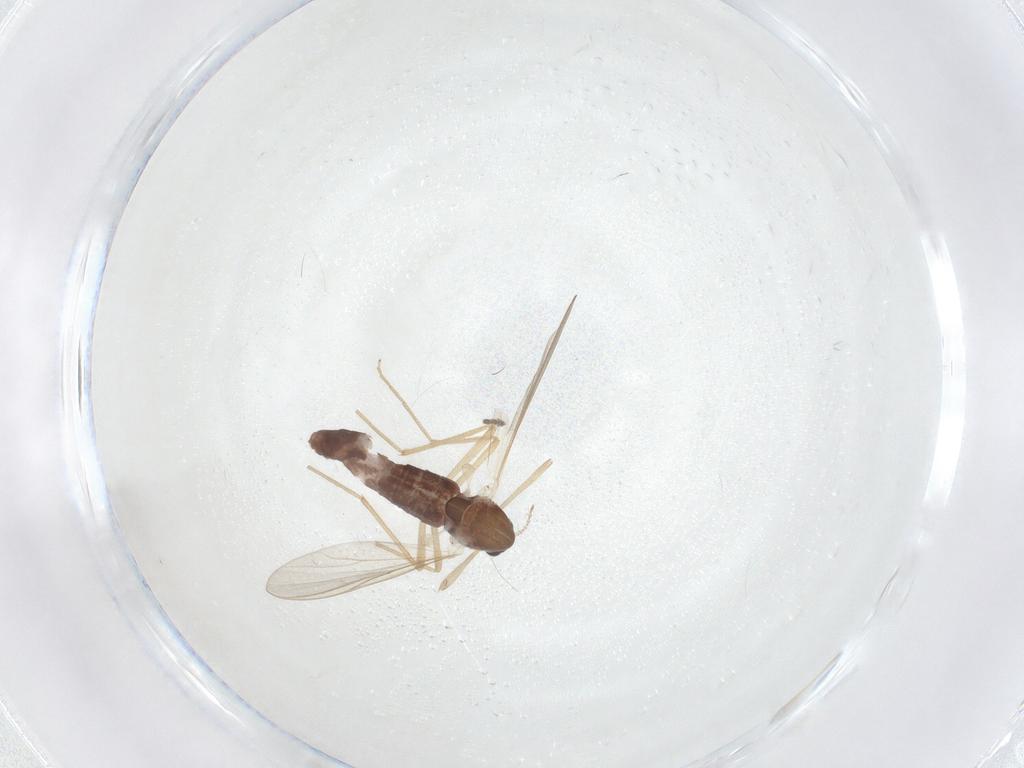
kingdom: Animalia
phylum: Arthropoda
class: Insecta
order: Diptera
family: Chironomidae
